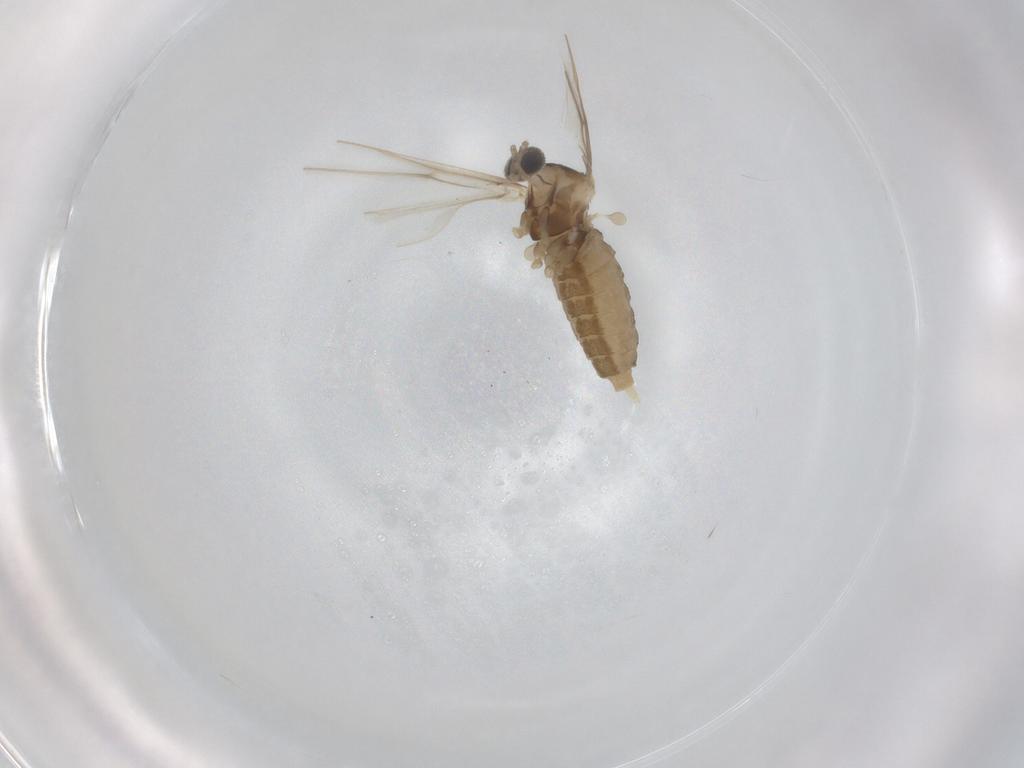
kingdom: Animalia
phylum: Arthropoda
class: Insecta
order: Diptera
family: Cecidomyiidae
